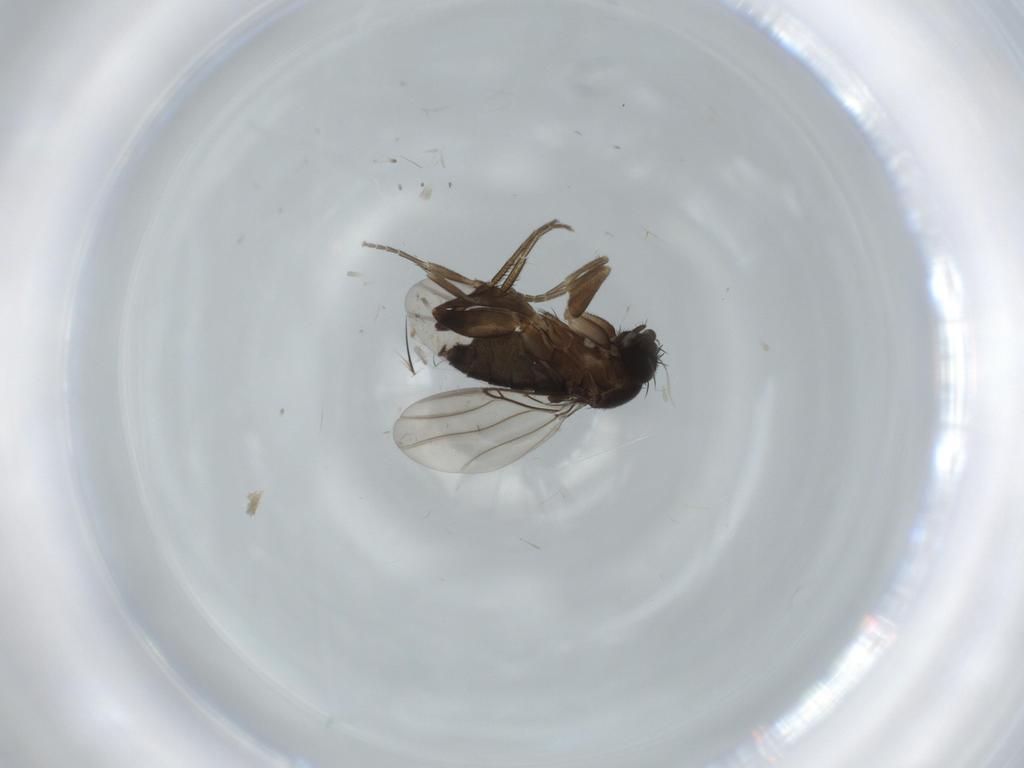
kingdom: Animalia
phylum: Arthropoda
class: Insecta
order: Diptera
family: Phoridae
